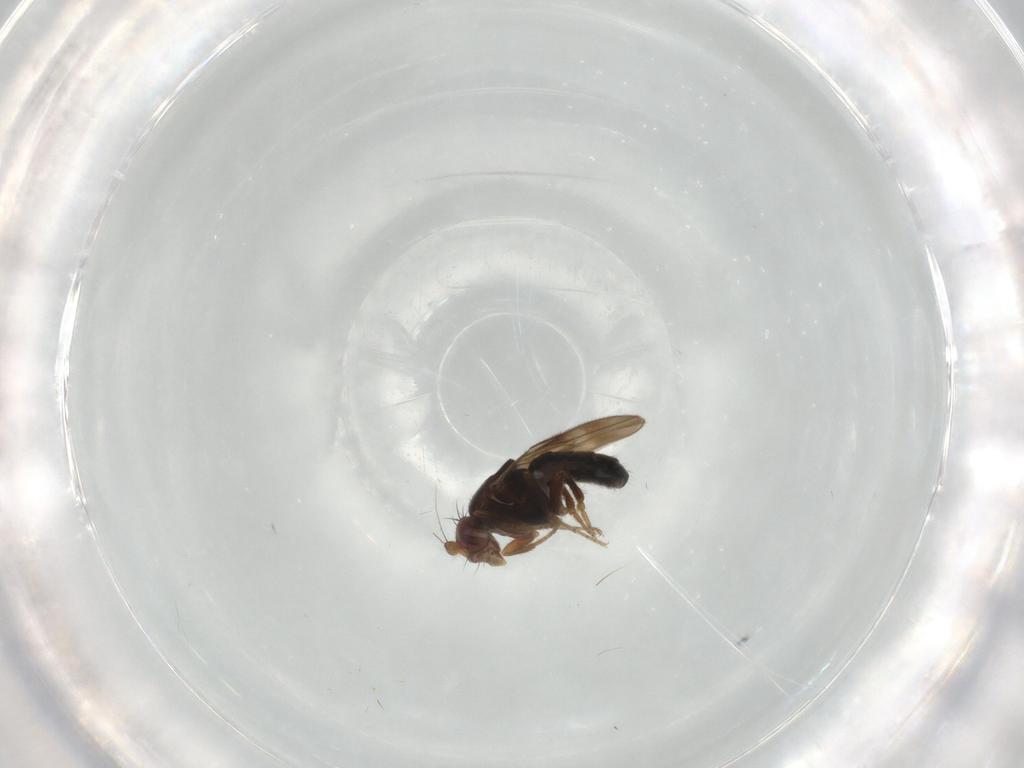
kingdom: Animalia
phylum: Arthropoda
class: Insecta
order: Diptera
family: Sphaeroceridae
